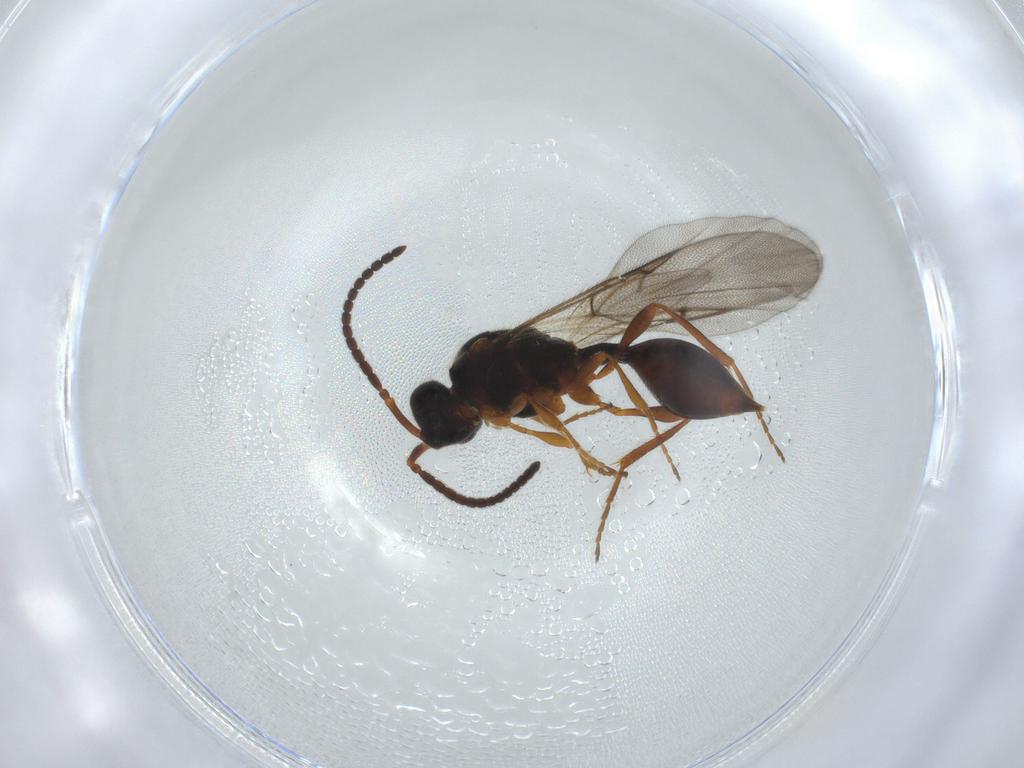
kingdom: Animalia
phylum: Arthropoda
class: Insecta
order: Hymenoptera
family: Diapriidae
